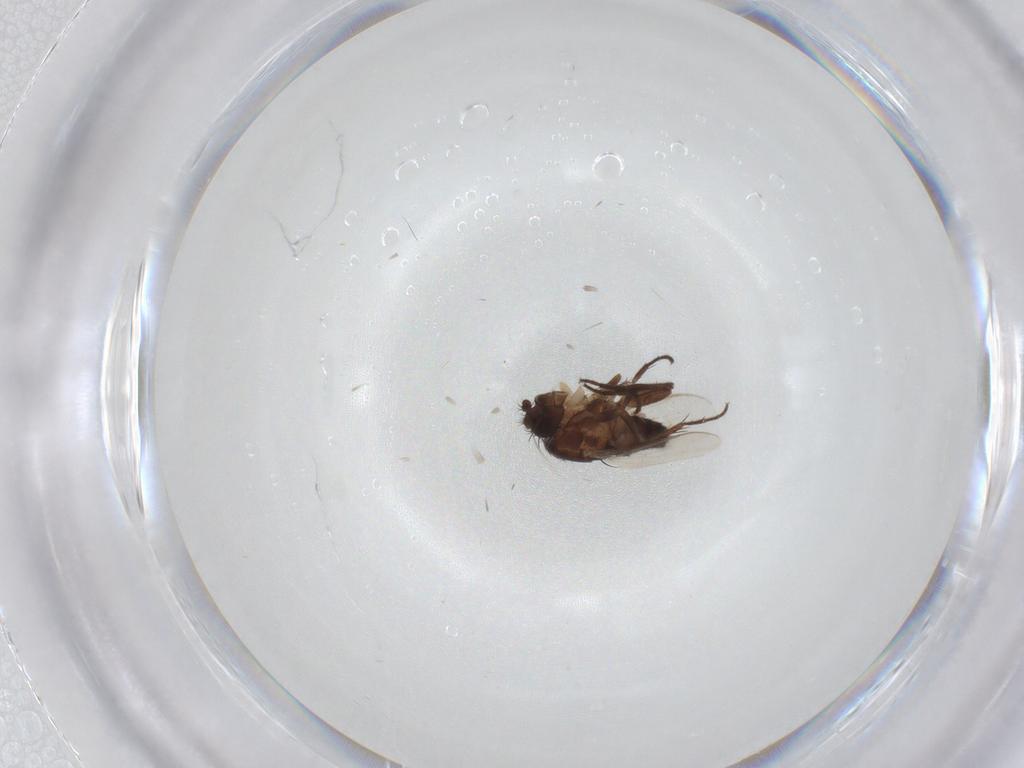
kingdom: Animalia
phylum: Arthropoda
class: Insecta
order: Diptera
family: Sphaeroceridae
